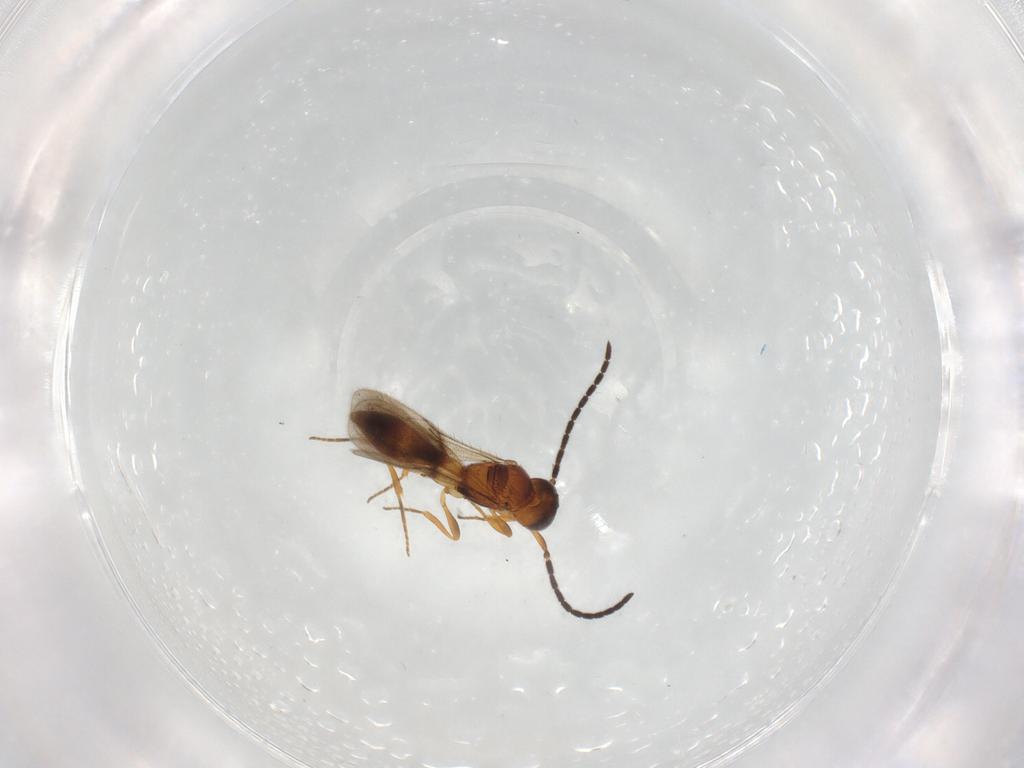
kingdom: Animalia
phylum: Arthropoda
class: Insecta
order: Hymenoptera
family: Scelionidae
